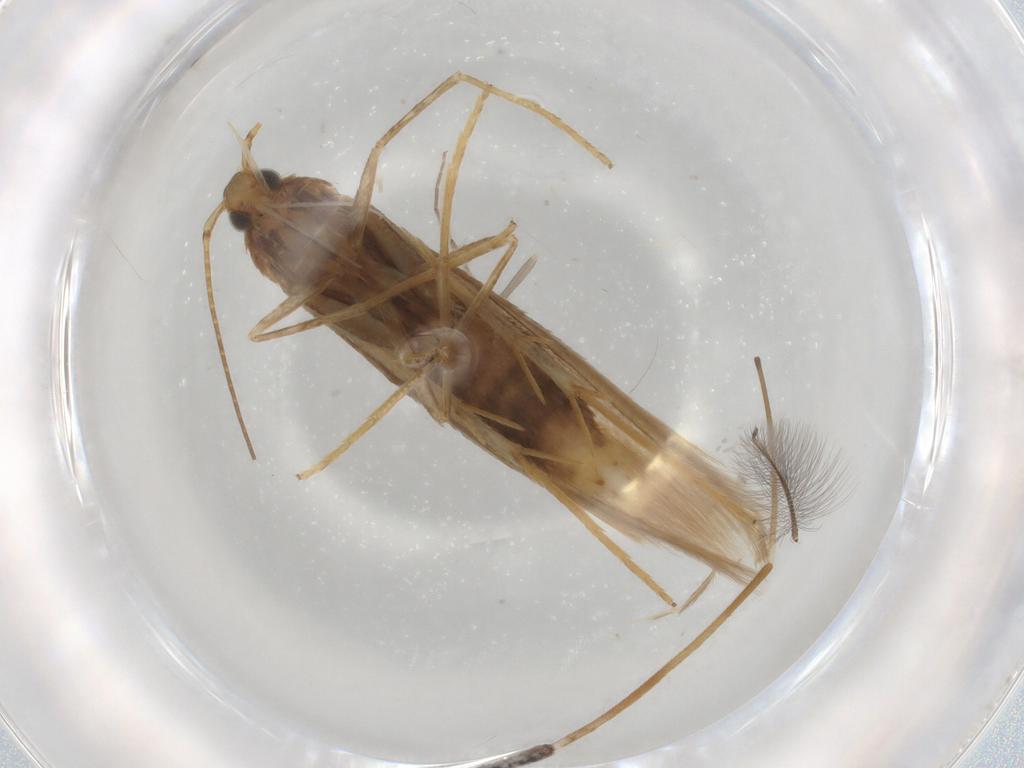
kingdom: Animalia
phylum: Arthropoda
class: Insecta
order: Lepidoptera
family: Coleophoridae
